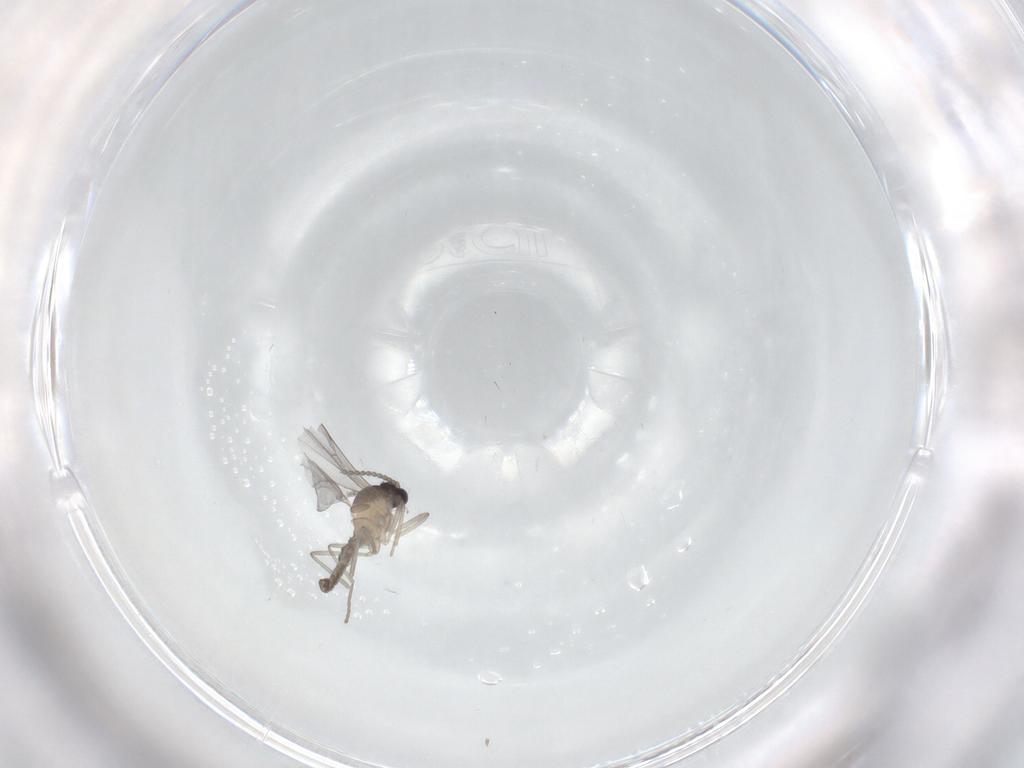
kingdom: Animalia
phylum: Arthropoda
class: Insecta
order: Diptera
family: Cecidomyiidae
